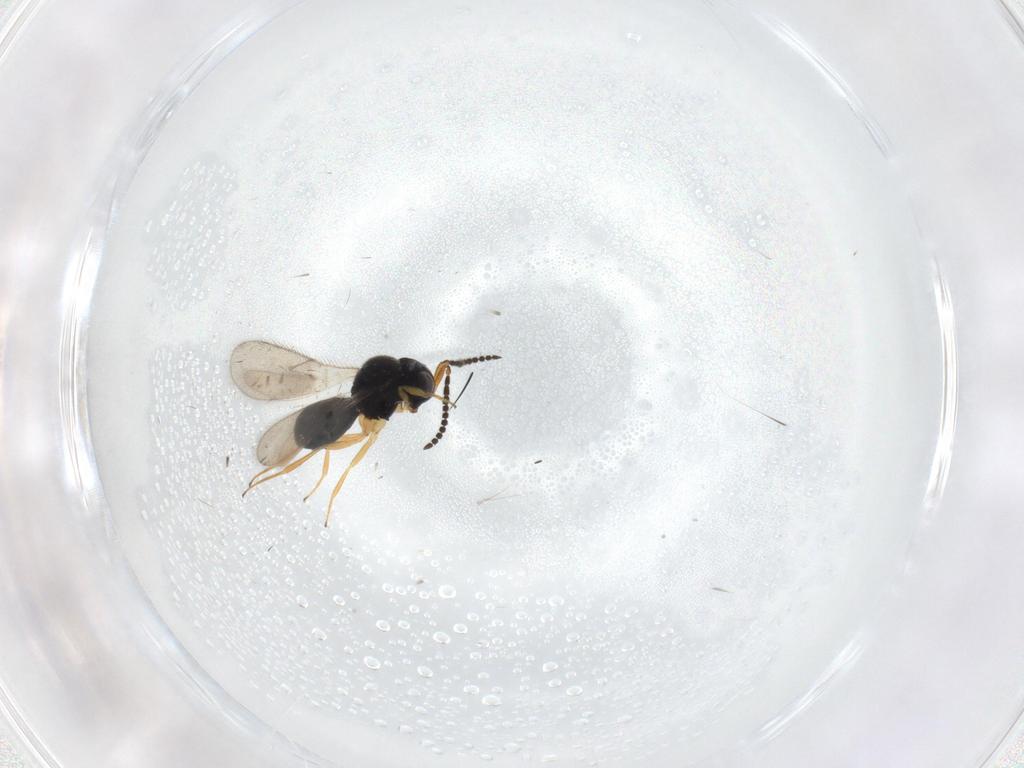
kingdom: Animalia
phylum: Arthropoda
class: Insecta
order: Hymenoptera
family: Scelionidae
